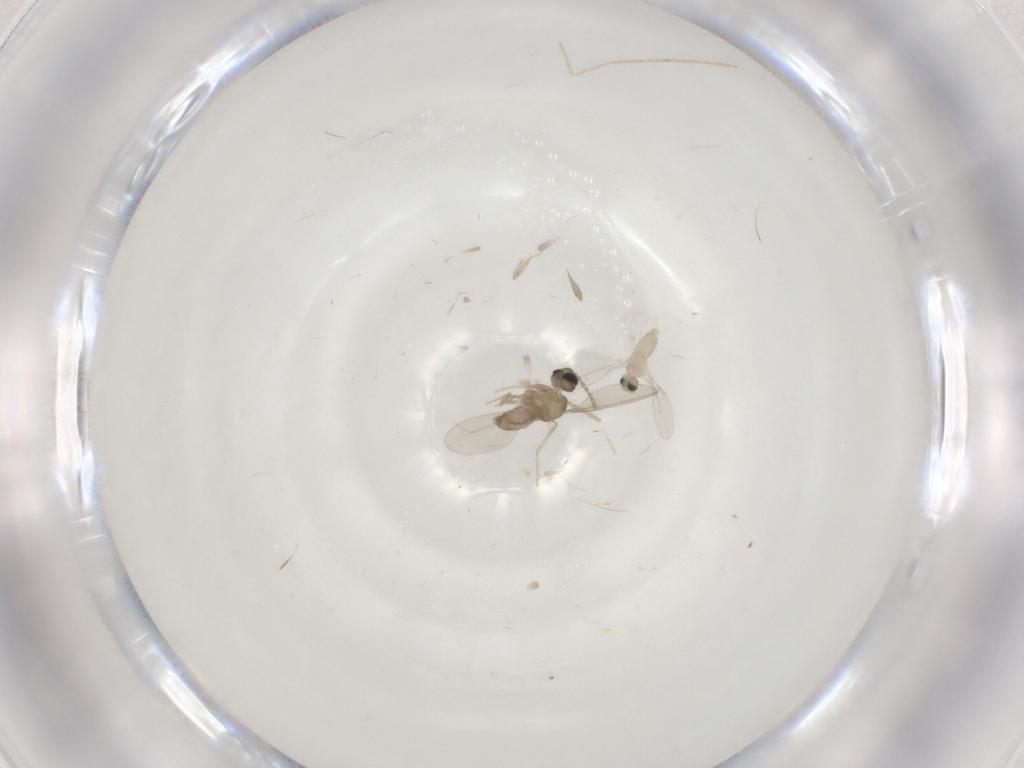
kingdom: Animalia
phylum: Arthropoda
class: Insecta
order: Diptera
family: Cecidomyiidae
